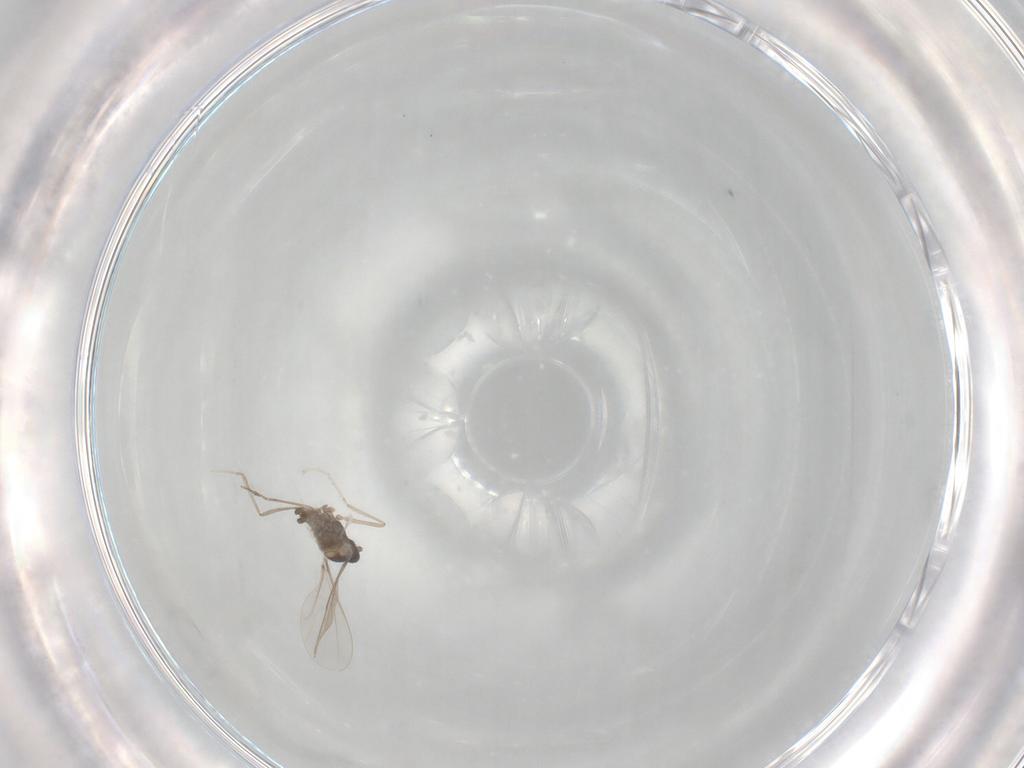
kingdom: Animalia
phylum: Arthropoda
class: Insecta
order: Diptera
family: Cecidomyiidae
